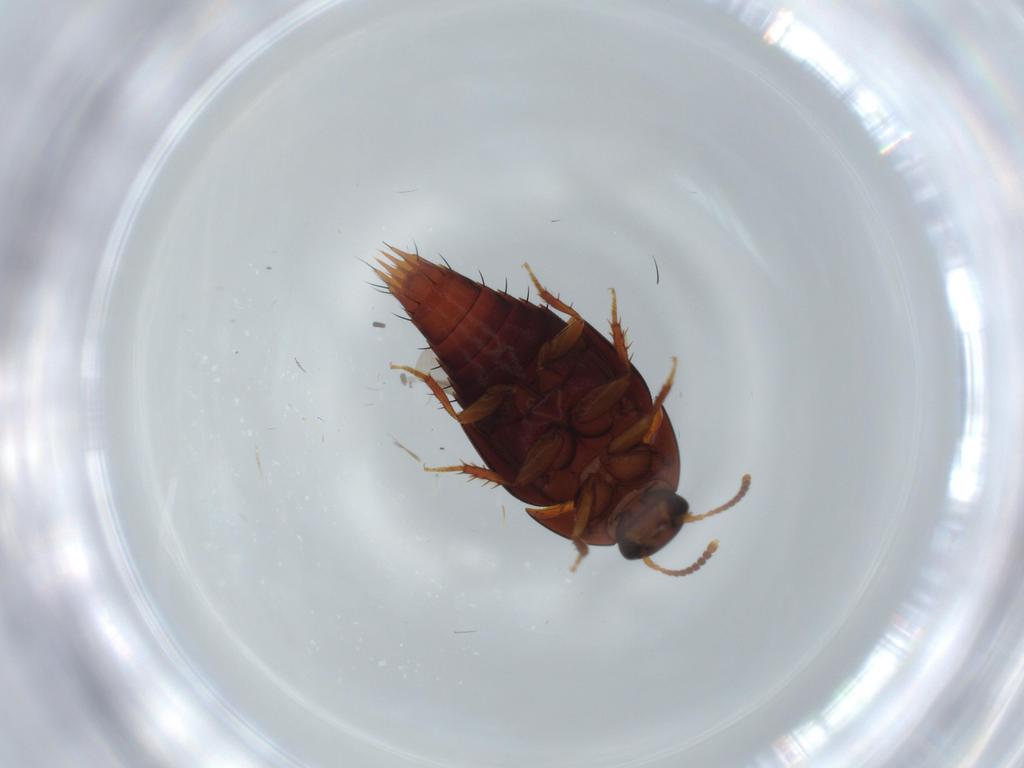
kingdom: Animalia
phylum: Arthropoda
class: Insecta
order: Coleoptera
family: Staphylinidae
